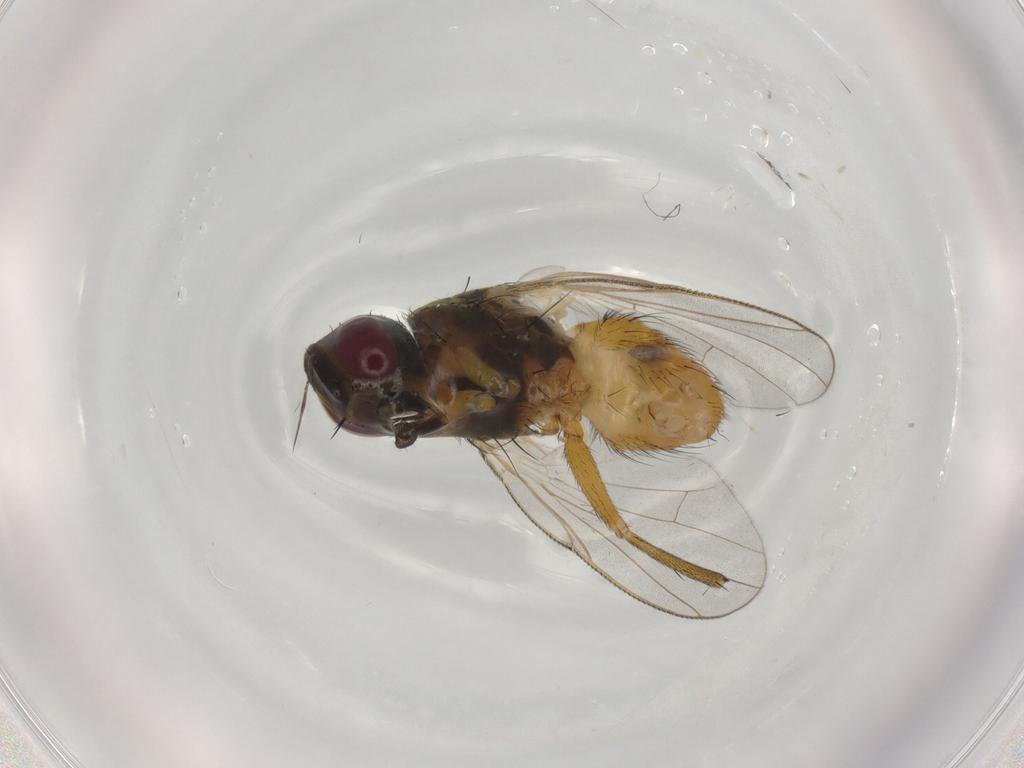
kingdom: Animalia
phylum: Arthropoda
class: Insecta
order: Diptera
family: Muscidae
